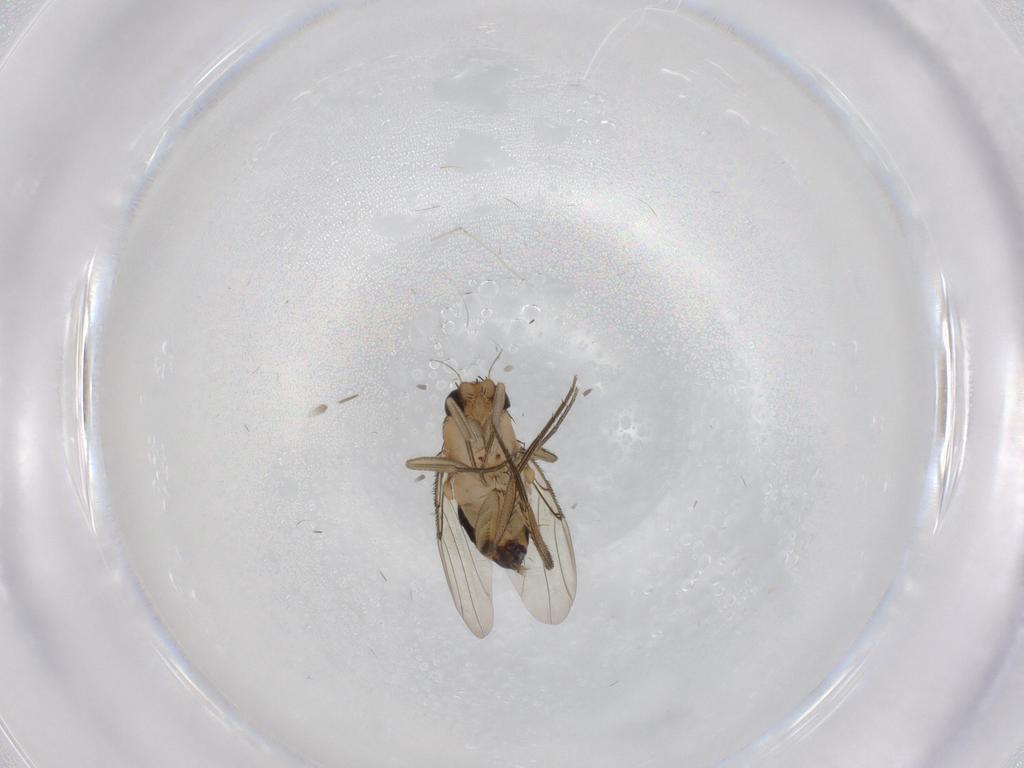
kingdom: Animalia
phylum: Arthropoda
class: Insecta
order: Diptera
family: Phoridae
